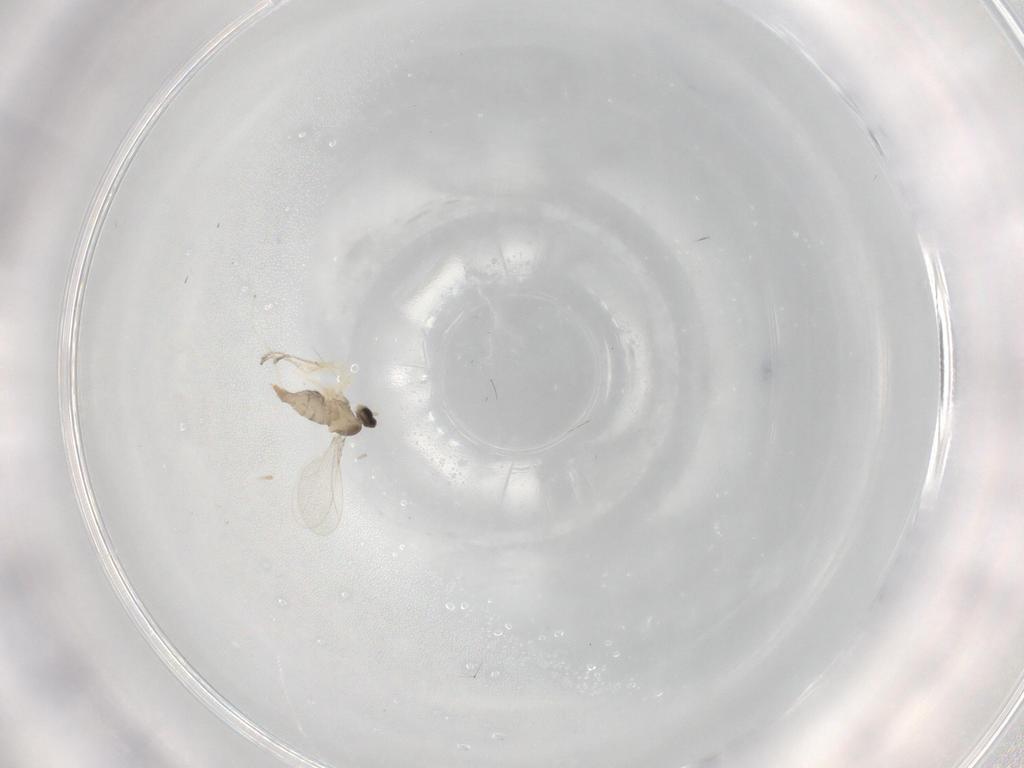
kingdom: Animalia
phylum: Arthropoda
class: Insecta
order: Diptera
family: Cecidomyiidae
